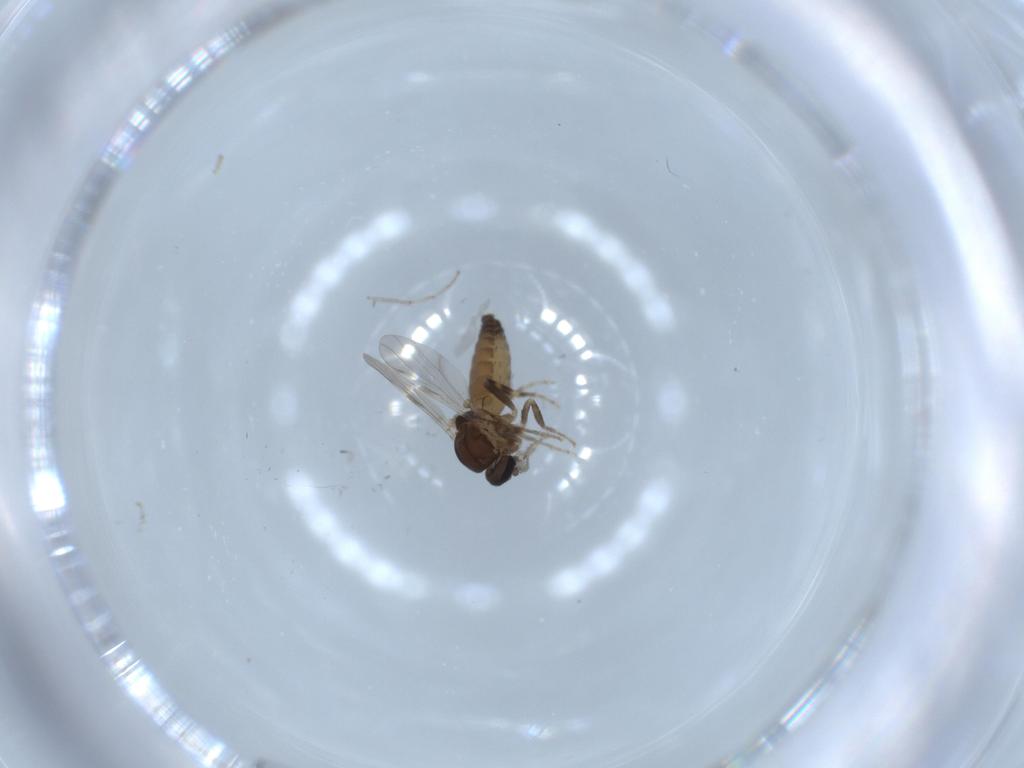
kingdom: Animalia
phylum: Arthropoda
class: Insecta
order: Diptera
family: Ceratopogonidae
